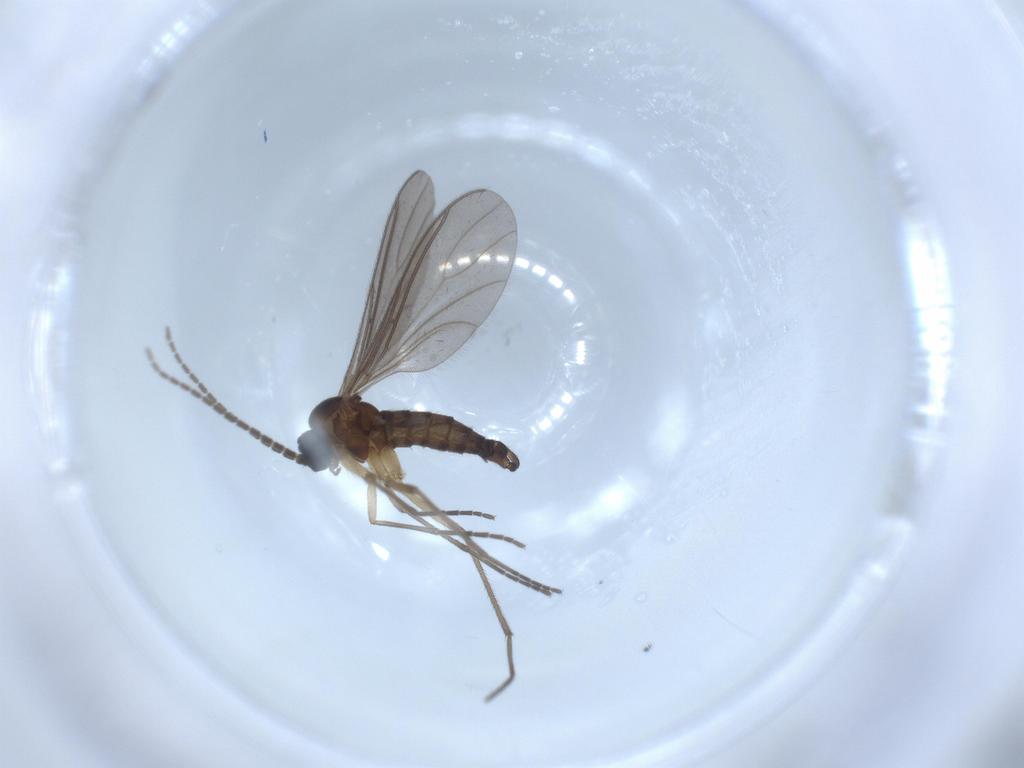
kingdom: Animalia
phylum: Arthropoda
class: Insecta
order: Diptera
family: Sciaridae
